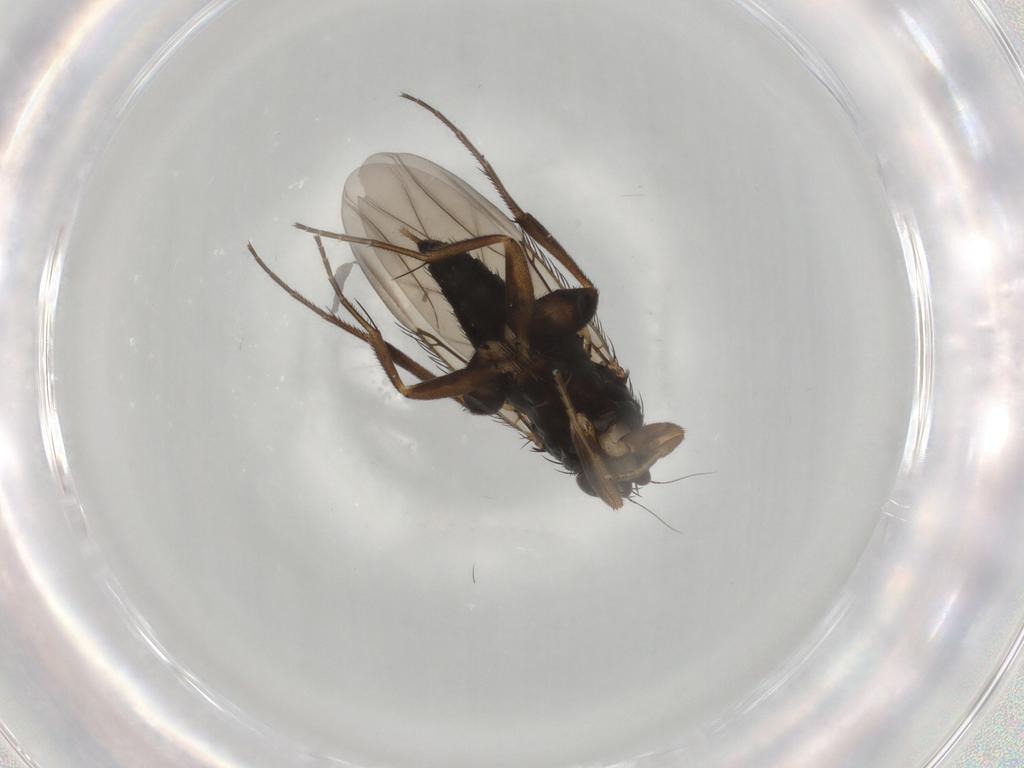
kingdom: Animalia
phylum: Arthropoda
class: Insecta
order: Diptera
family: Phoridae
